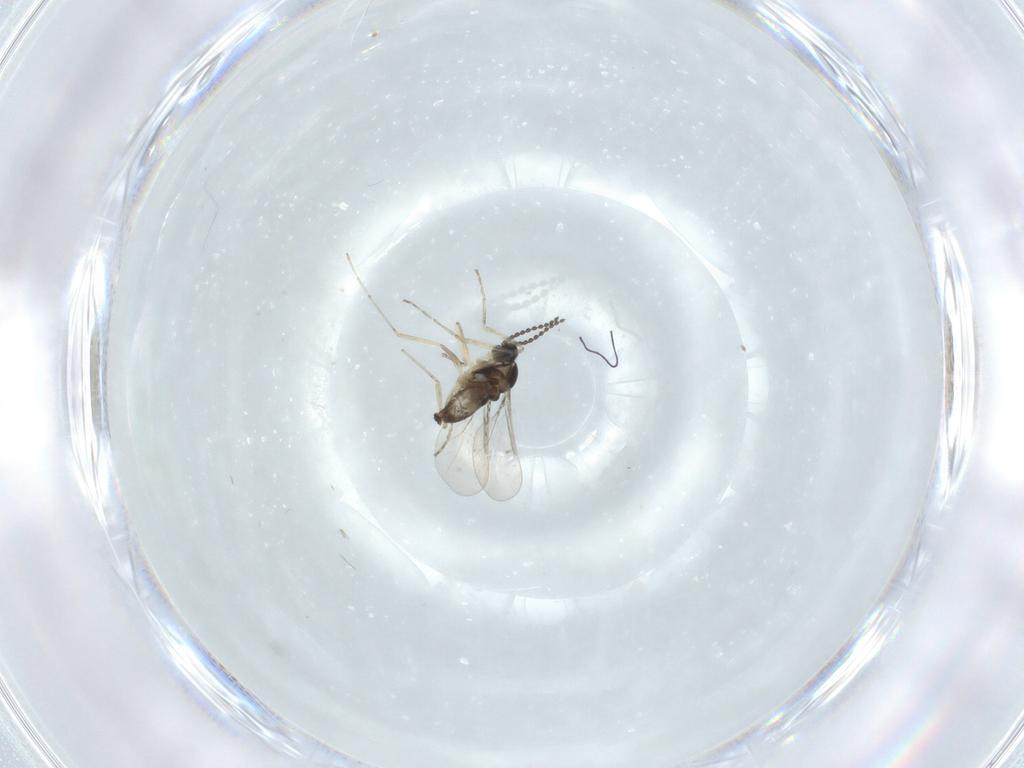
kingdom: Animalia
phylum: Arthropoda
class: Insecta
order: Diptera
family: Cecidomyiidae
